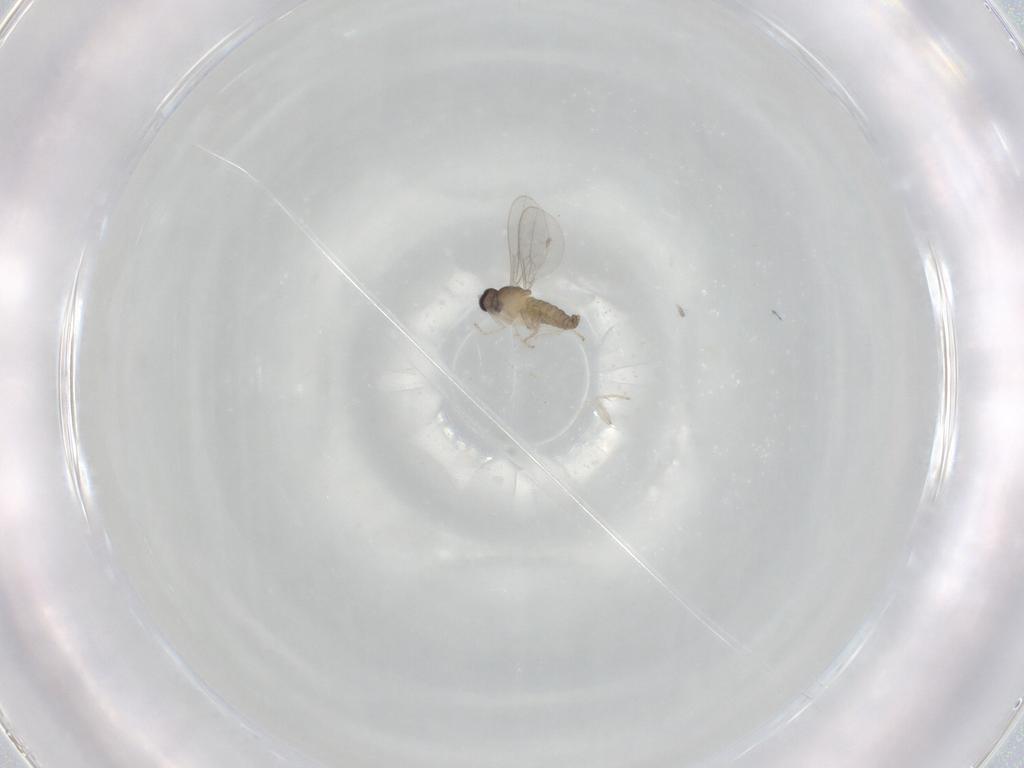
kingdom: Animalia
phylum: Arthropoda
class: Insecta
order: Diptera
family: Cecidomyiidae
